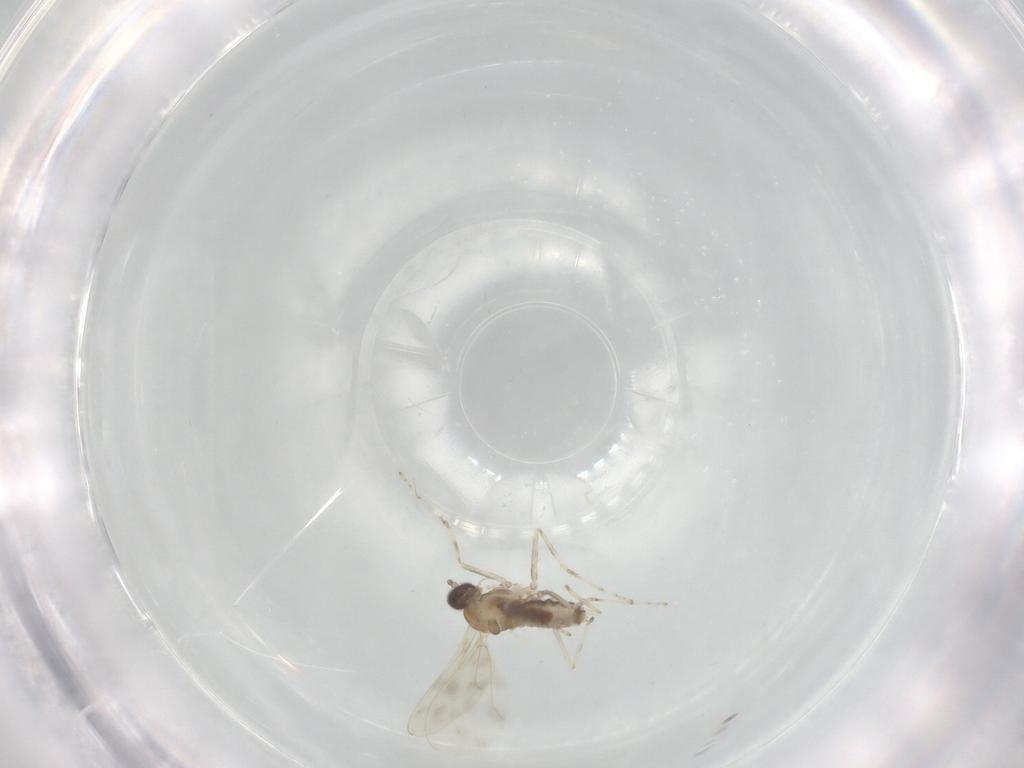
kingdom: Animalia
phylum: Arthropoda
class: Insecta
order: Diptera
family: Cecidomyiidae
